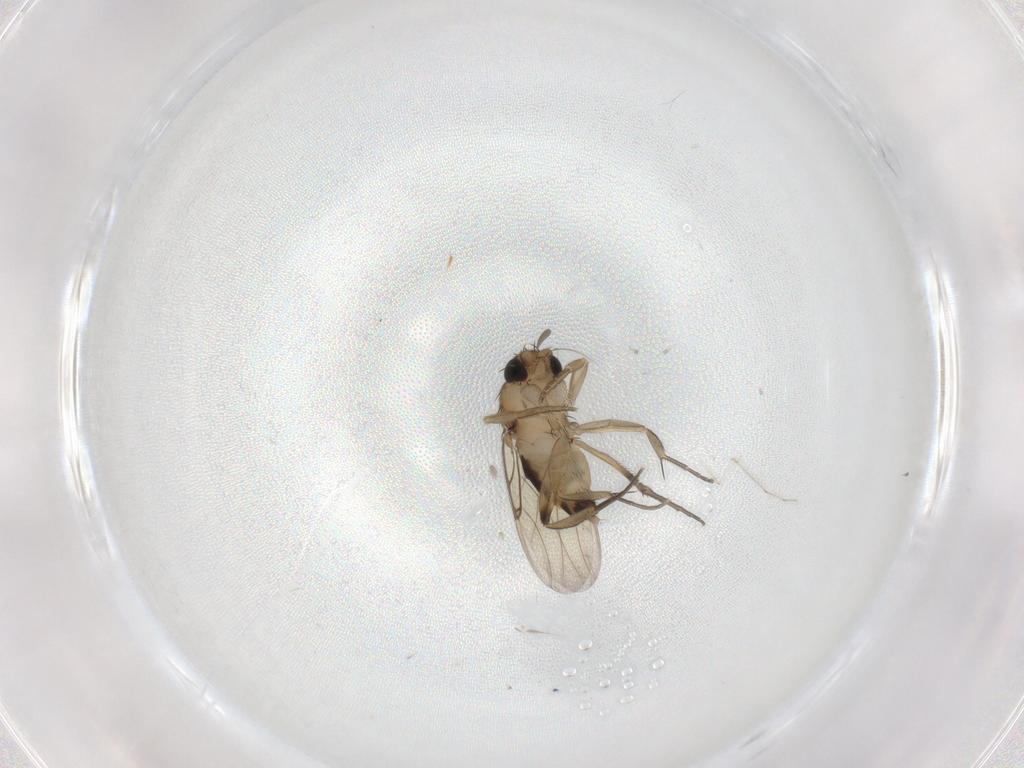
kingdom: Animalia
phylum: Arthropoda
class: Insecta
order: Diptera
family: Cecidomyiidae
